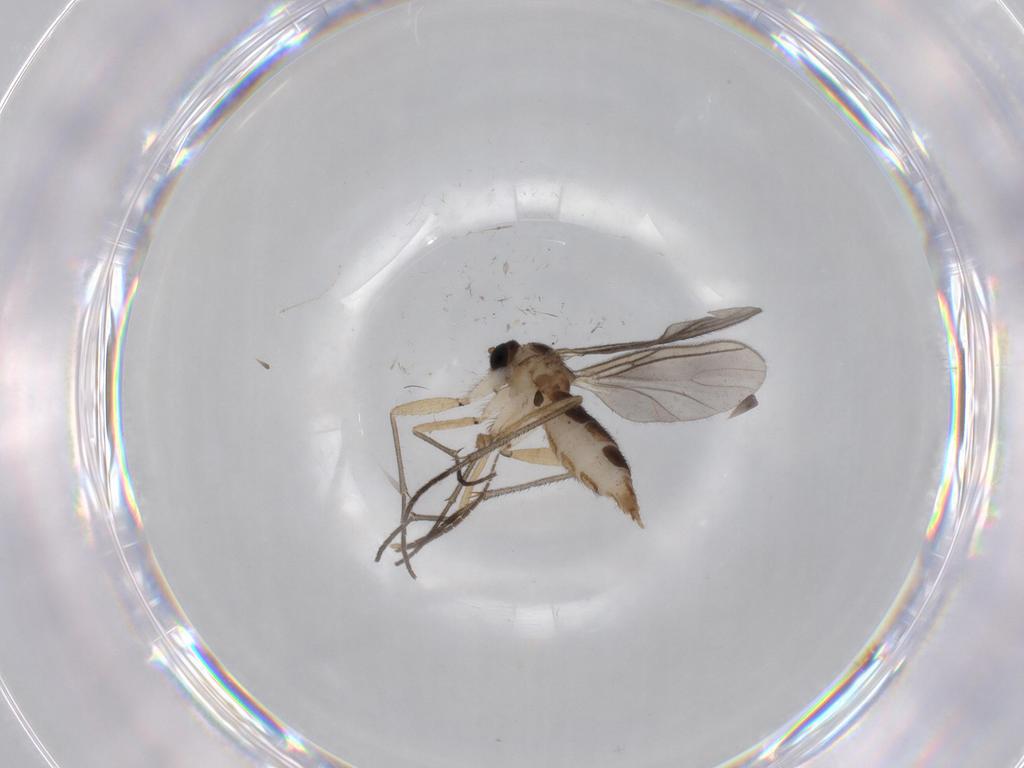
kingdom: Animalia
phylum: Arthropoda
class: Insecta
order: Diptera
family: Sciaridae
